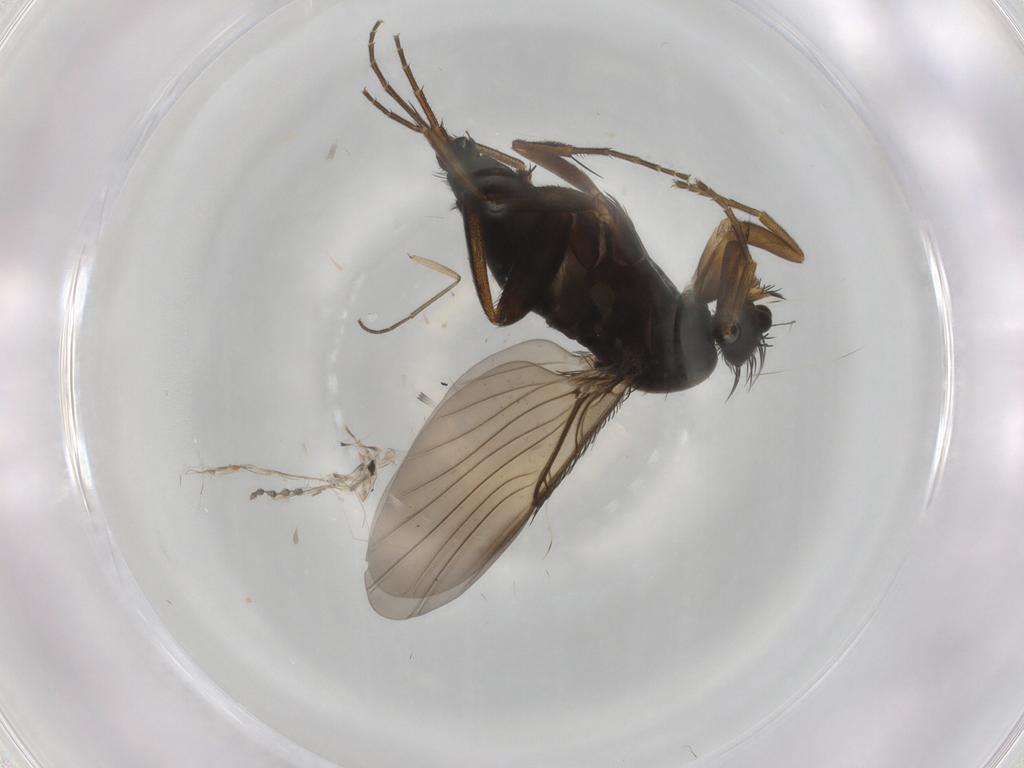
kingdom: Animalia
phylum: Arthropoda
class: Insecta
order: Diptera
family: Phoridae
